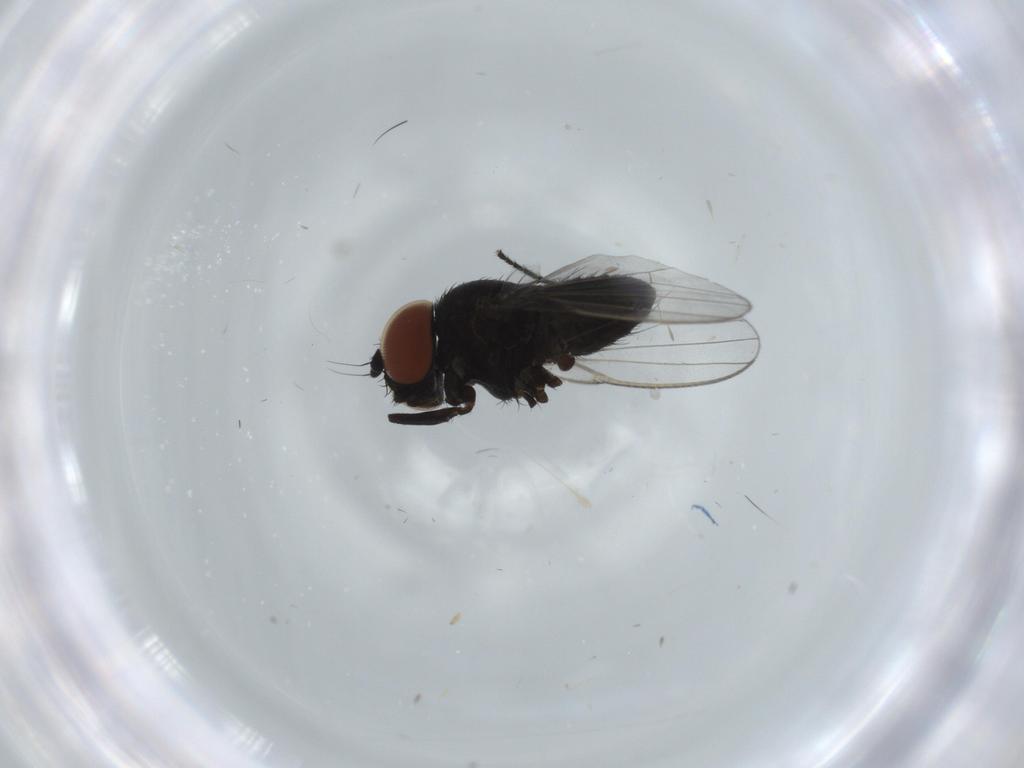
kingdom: Animalia
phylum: Arthropoda
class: Insecta
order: Diptera
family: Milichiidae
